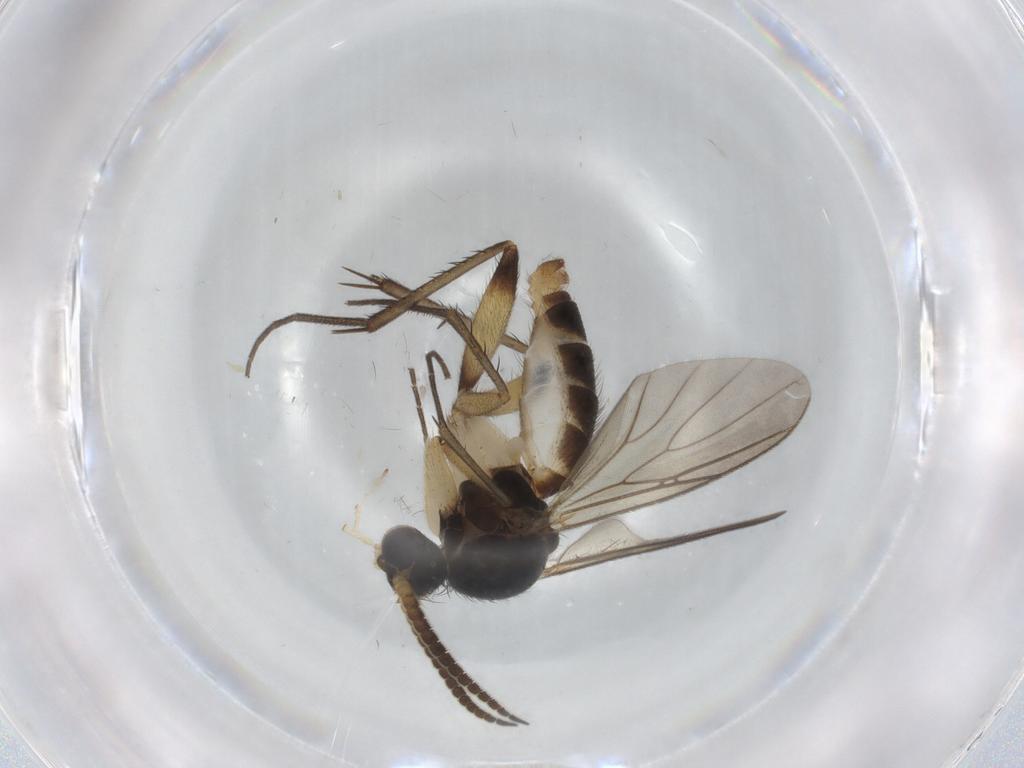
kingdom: Animalia
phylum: Arthropoda
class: Insecta
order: Diptera
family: Mycetophilidae
